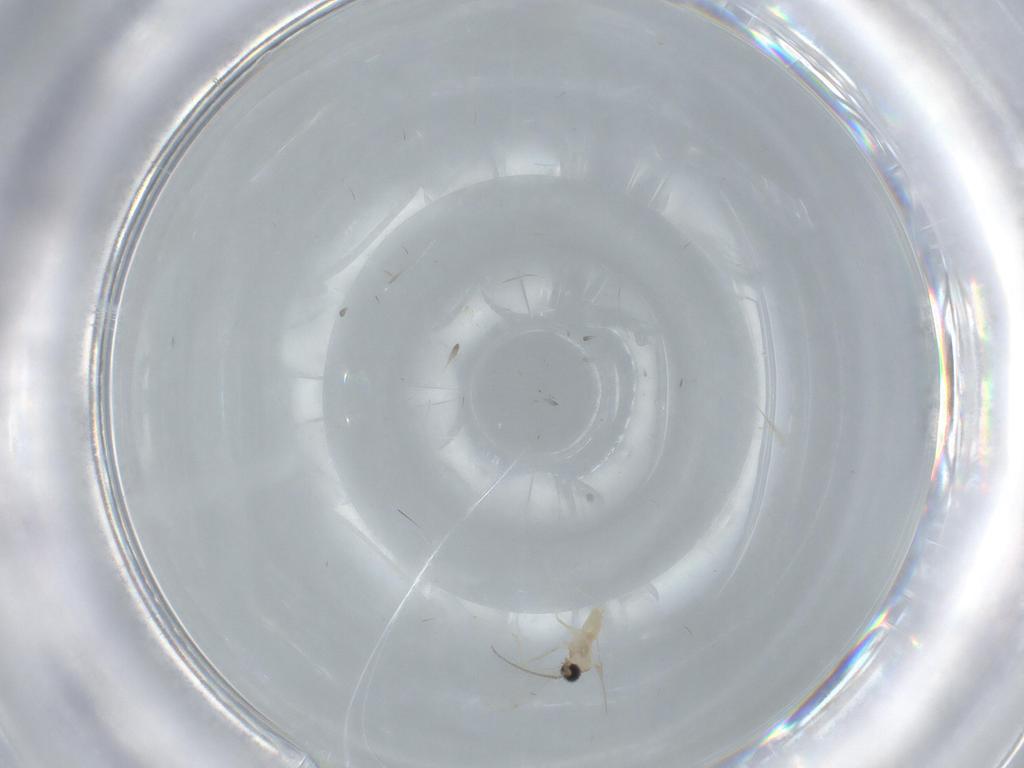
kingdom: Animalia
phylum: Arthropoda
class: Insecta
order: Diptera
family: Cecidomyiidae
